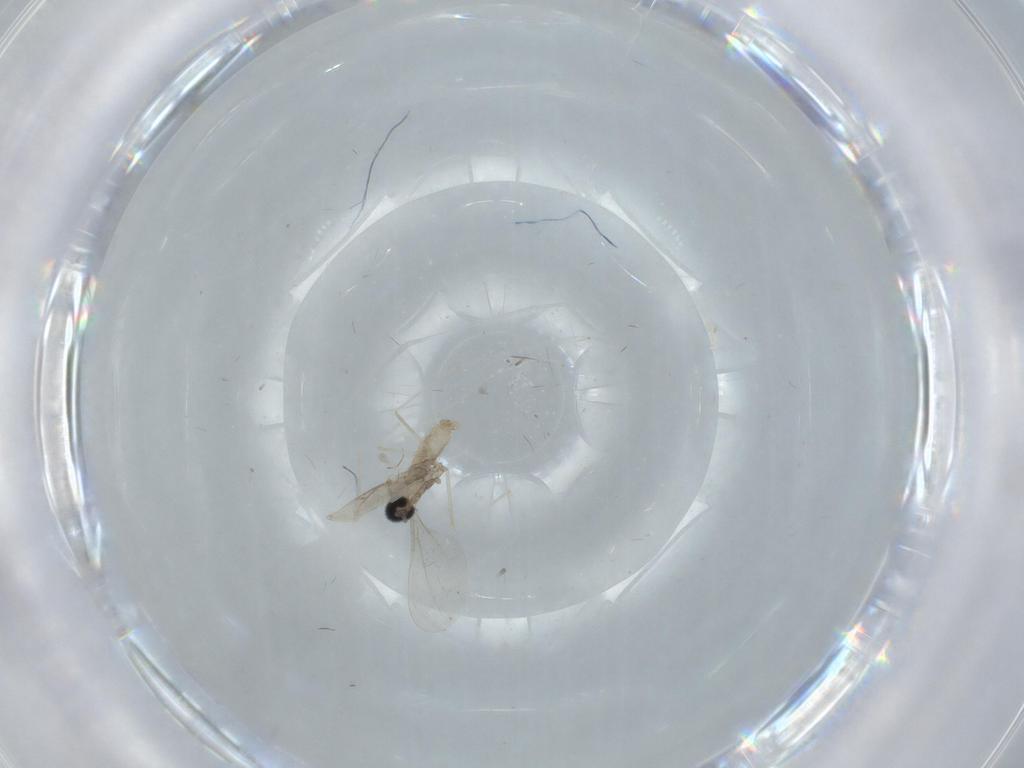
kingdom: Animalia
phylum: Arthropoda
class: Insecta
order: Diptera
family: Cecidomyiidae
